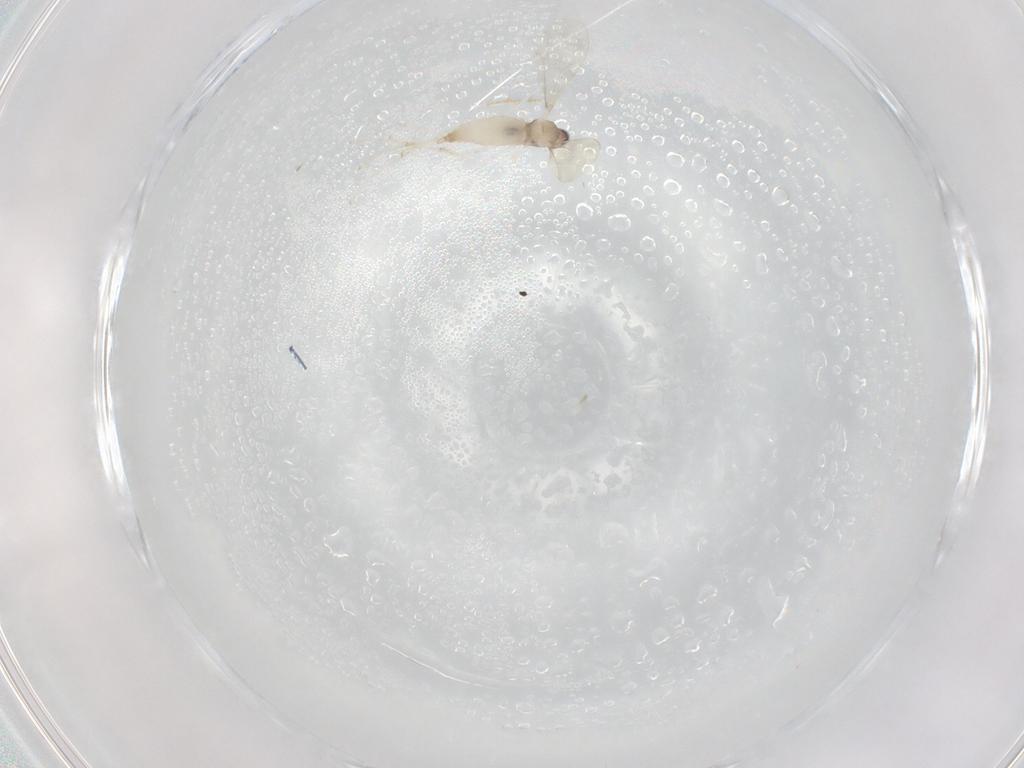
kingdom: Animalia
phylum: Arthropoda
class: Insecta
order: Diptera
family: Cecidomyiidae
